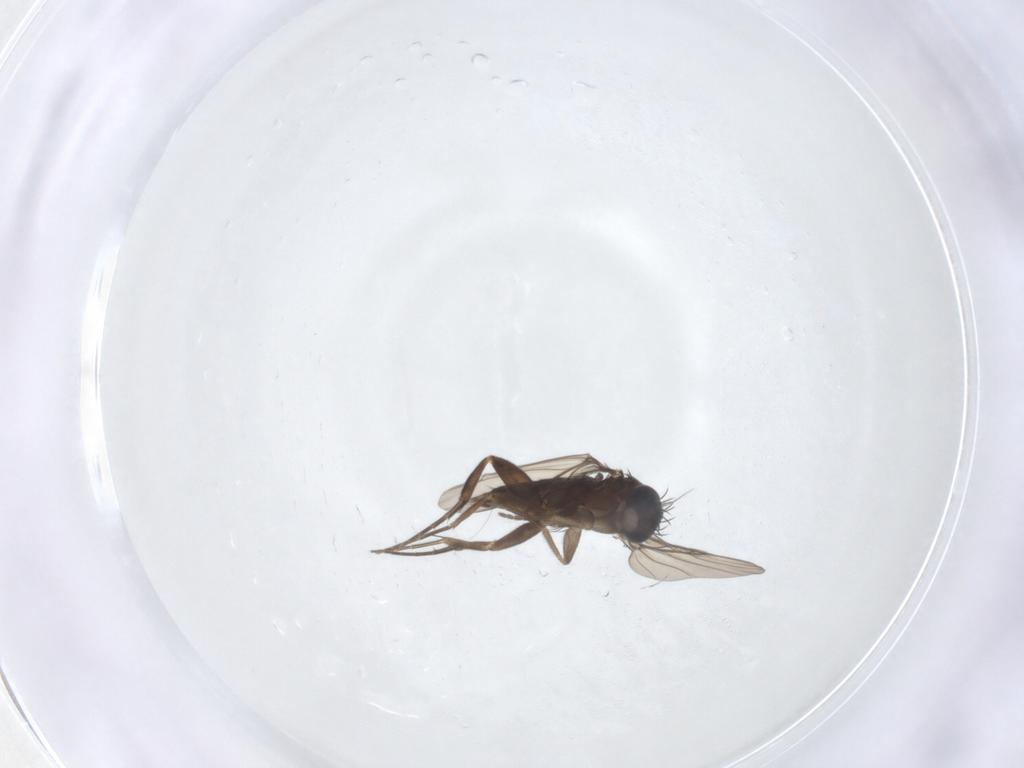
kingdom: Animalia
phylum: Arthropoda
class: Insecta
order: Diptera
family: Phoridae
